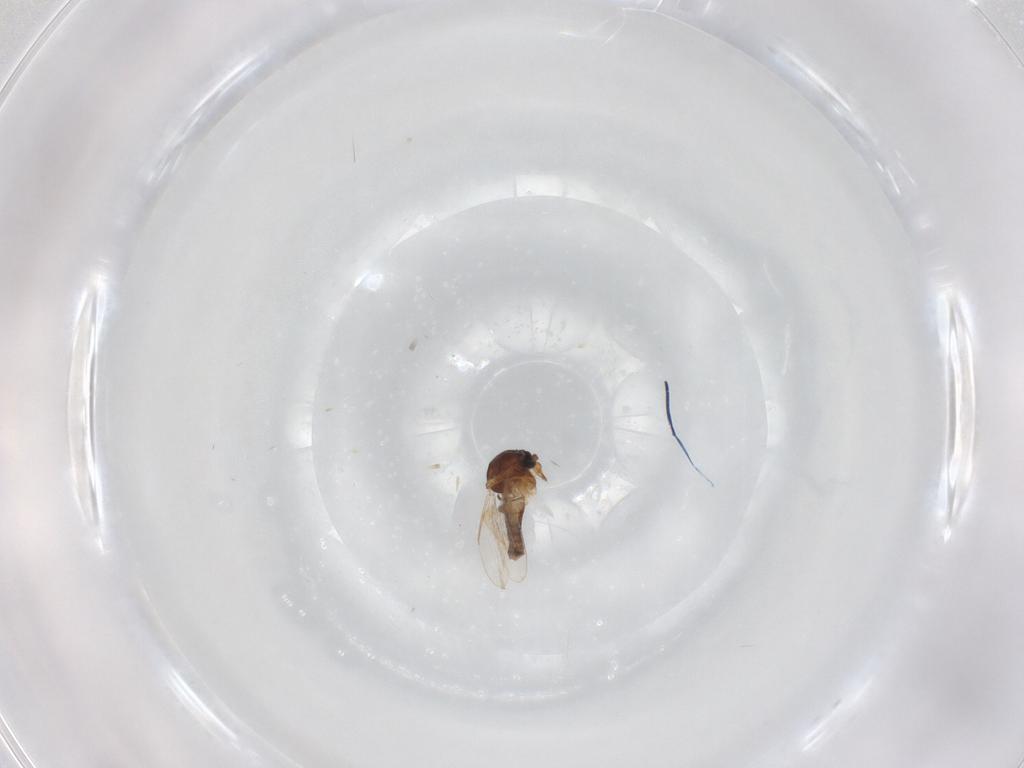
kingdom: Animalia
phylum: Arthropoda
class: Insecta
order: Diptera
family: Ceratopogonidae
